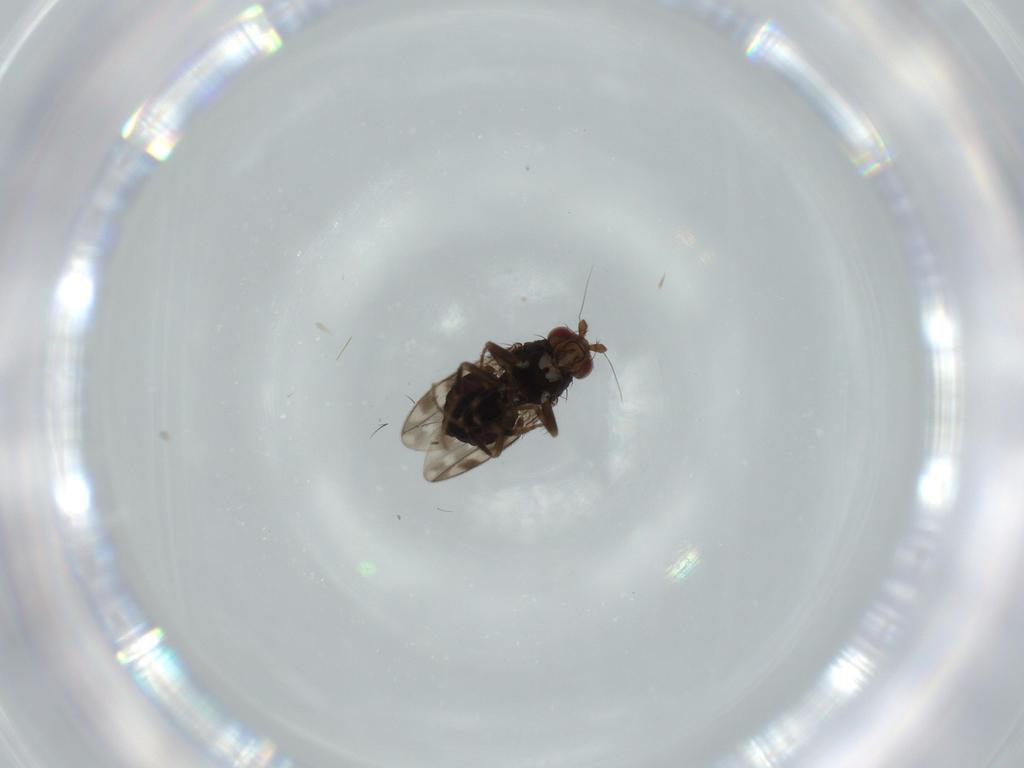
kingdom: Animalia
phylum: Arthropoda
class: Insecta
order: Diptera
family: Sphaeroceridae
